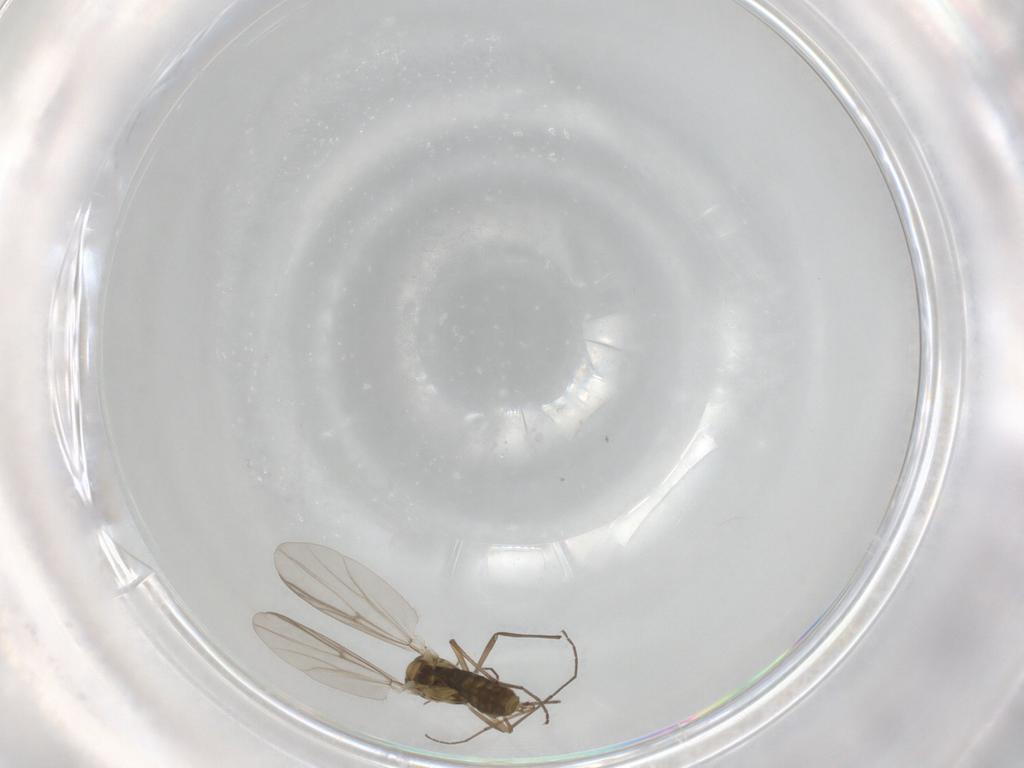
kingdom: Animalia
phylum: Arthropoda
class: Insecta
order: Diptera
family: Chironomidae
